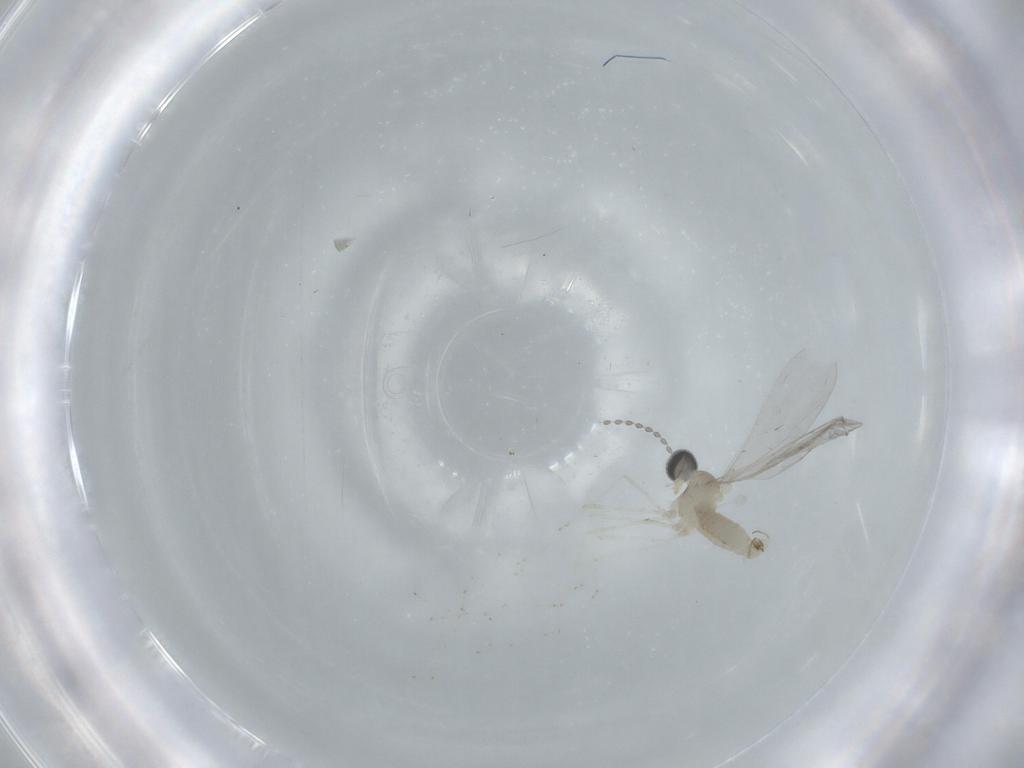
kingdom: Animalia
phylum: Arthropoda
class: Insecta
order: Diptera
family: Cecidomyiidae
